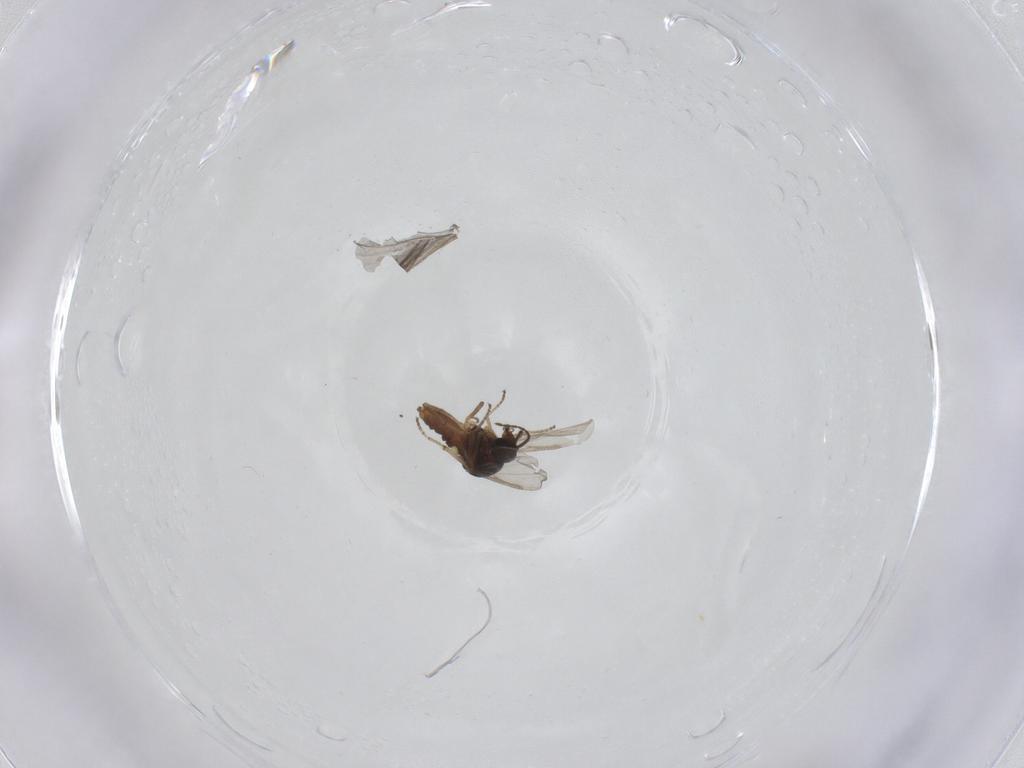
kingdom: Animalia
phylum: Arthropoda
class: Insecta
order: Diptera
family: Ceratopogonidae
